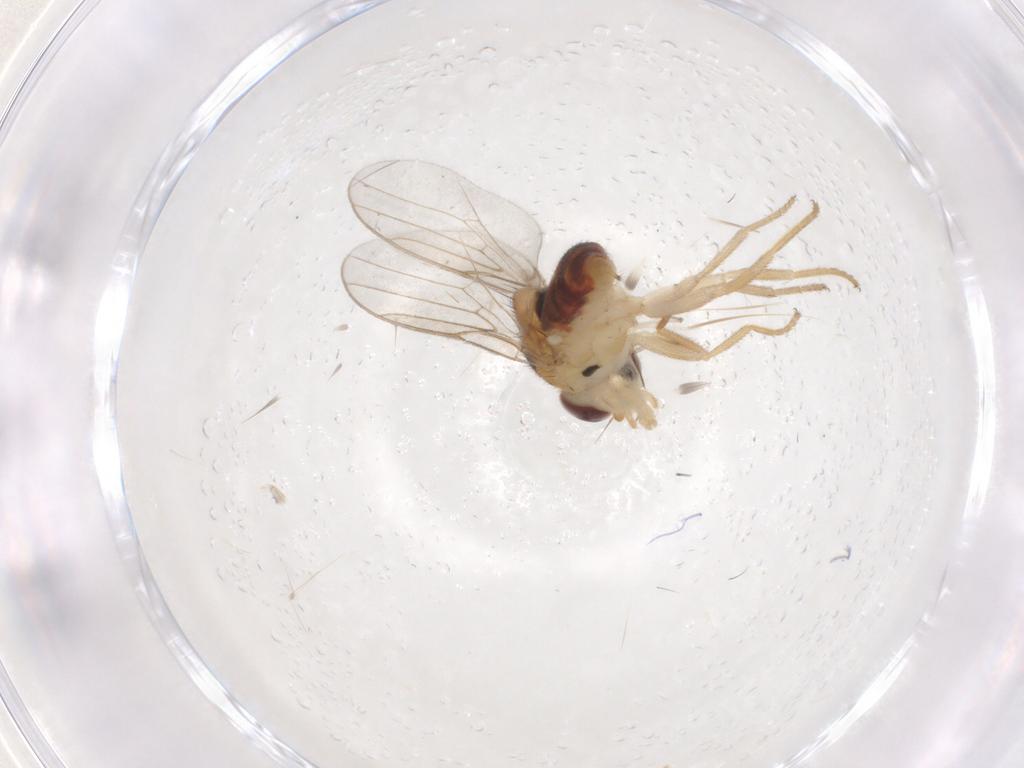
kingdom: Animalia
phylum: Arthropoda
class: Insecta
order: Diptera
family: Chloropidae
